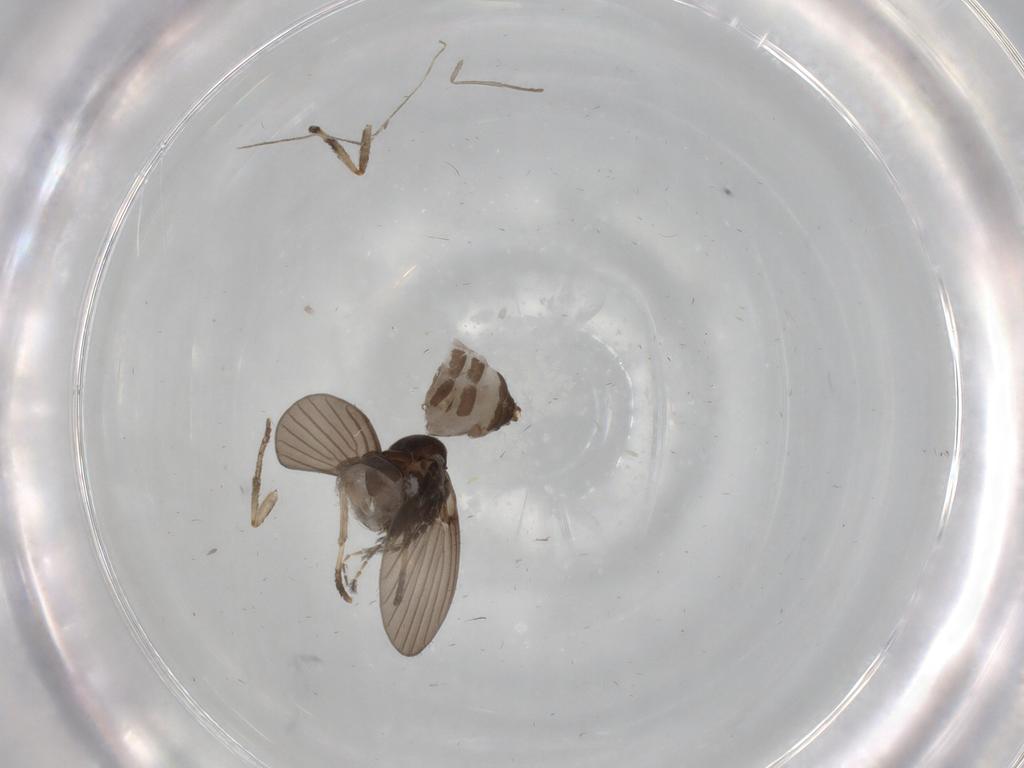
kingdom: Animalia
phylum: Arthropoda
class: Insecta
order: Diptera
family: Psychodidae
